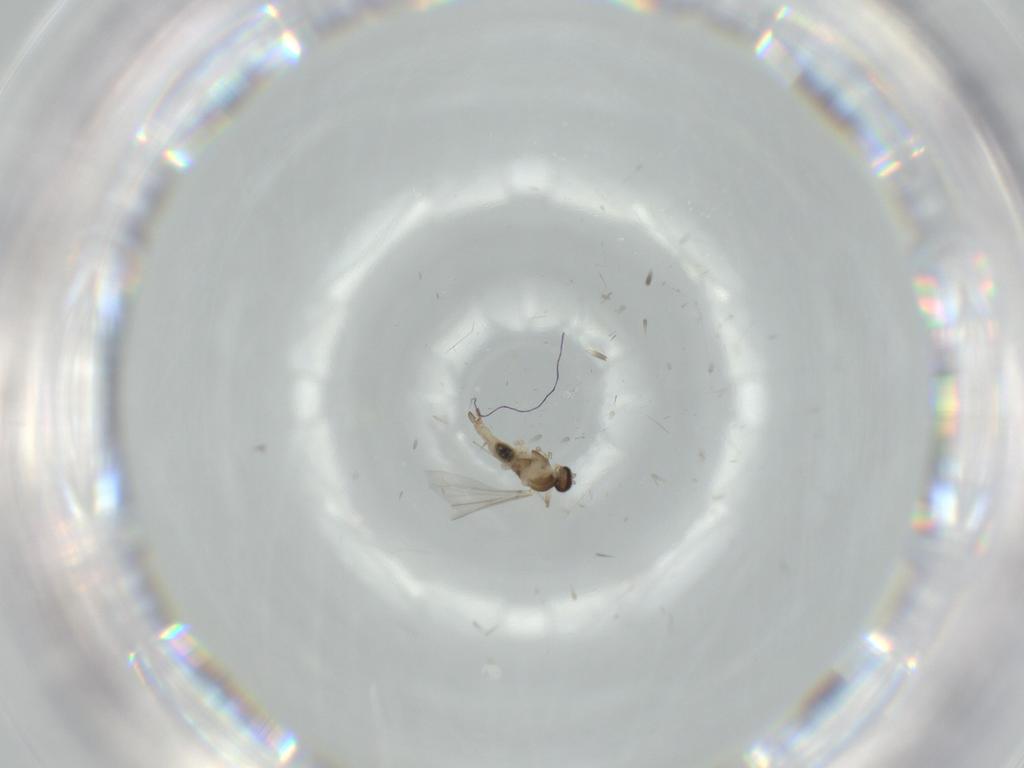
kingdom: Animalia
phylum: Arthropoda
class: Insecta
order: Diptera
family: Cecidomyiidae
